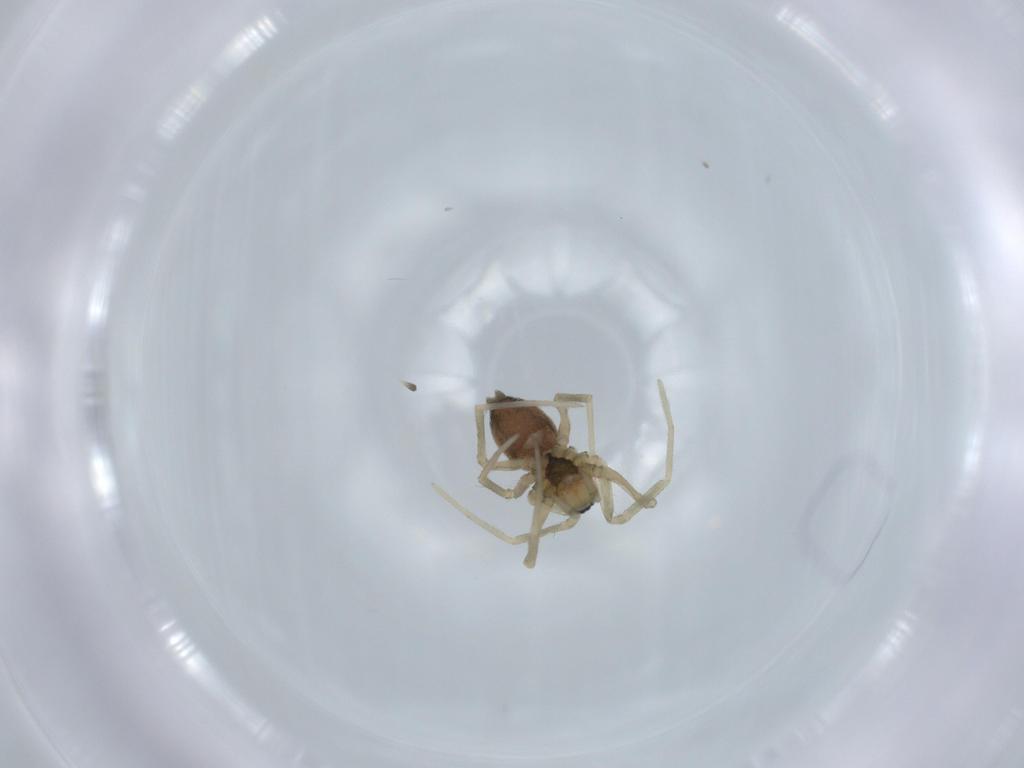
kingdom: Animalia
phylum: Arthropoda
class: Arachnida
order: Araneae
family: Linyphiidae
